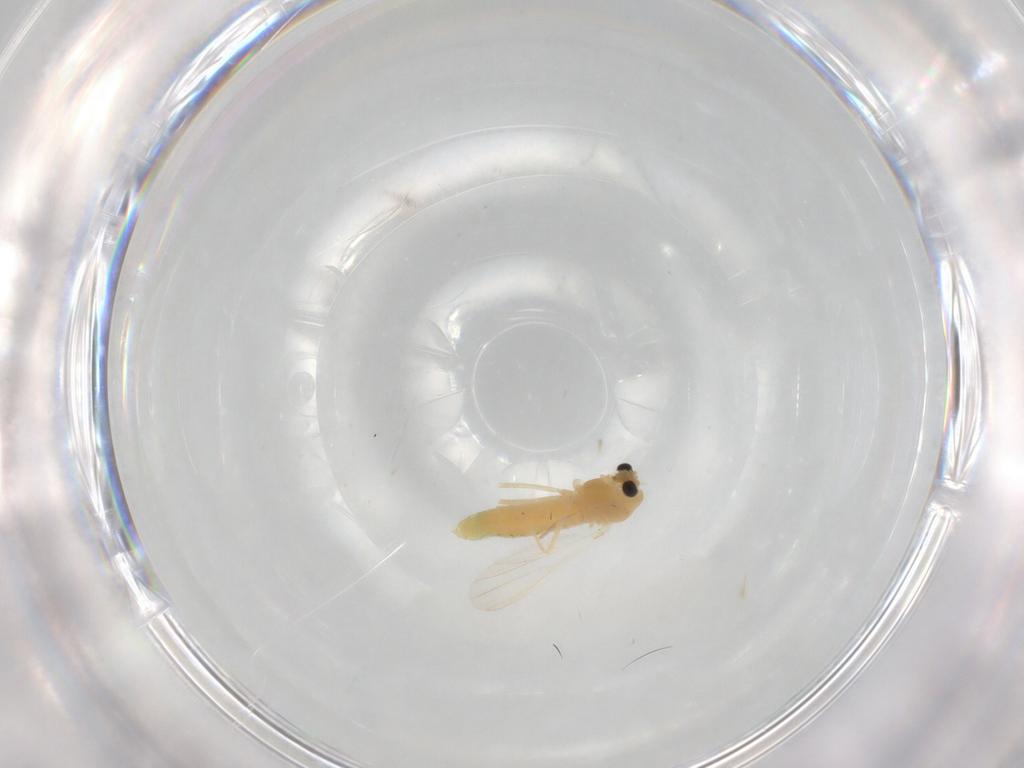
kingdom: Animalia
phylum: Arthropoda
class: Insecta
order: Diptera
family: Chironomidae
